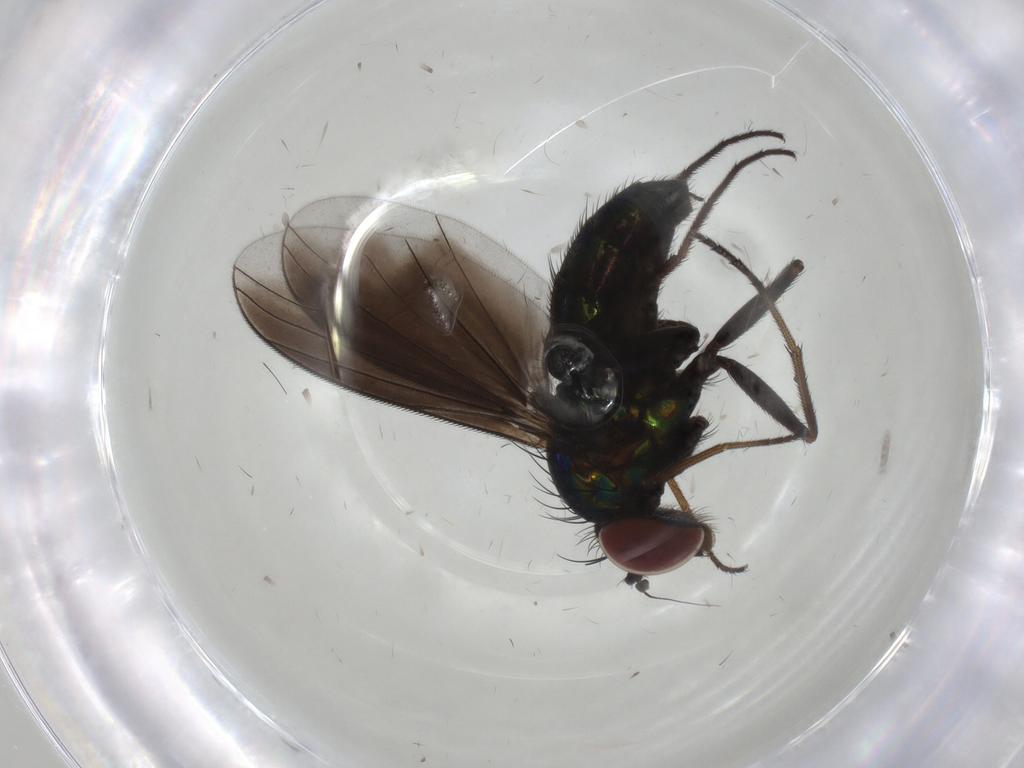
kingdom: Animalia
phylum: Arthropoda
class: Insecta
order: Diptera
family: Dolichopodidae
